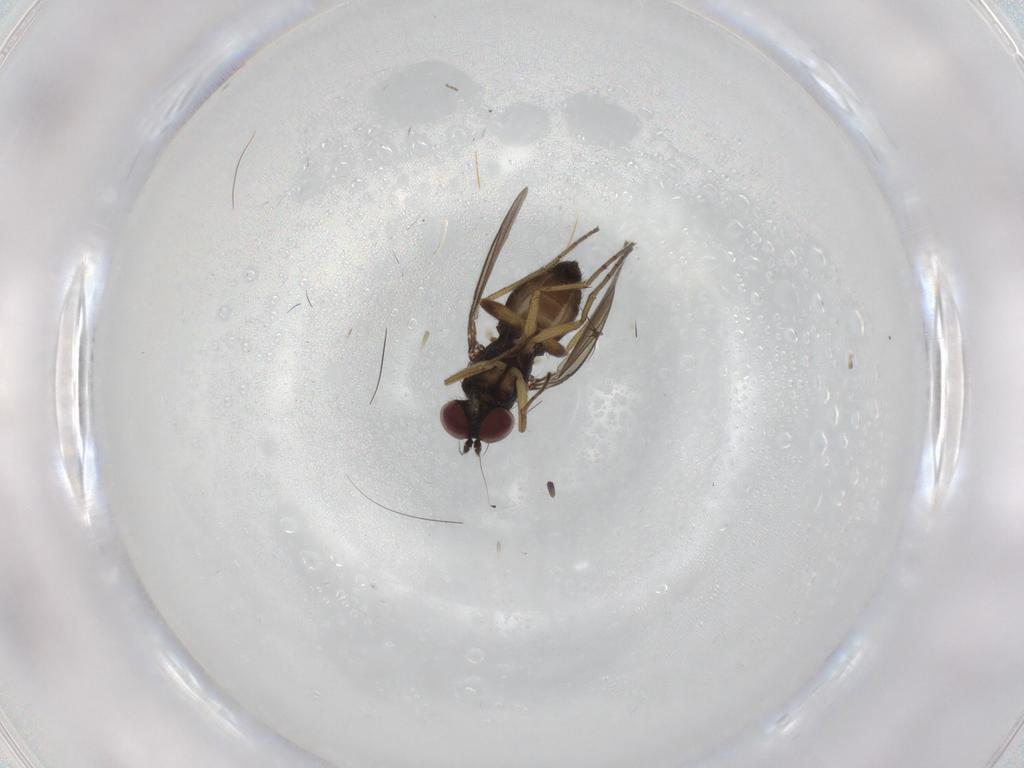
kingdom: Animalia
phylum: Arthropoda
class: Insecta
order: Diptera
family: Dolichopodidae
